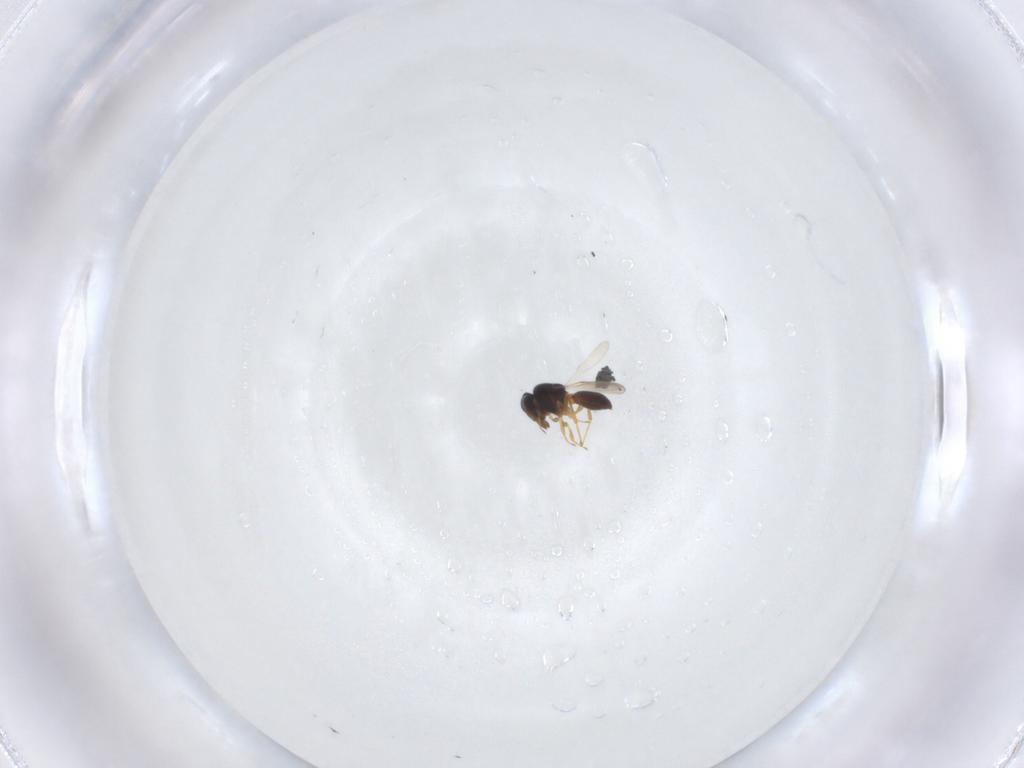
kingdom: Animalia
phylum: Arthropoda
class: Insecta
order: Hymenoptera
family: Scelionidae
